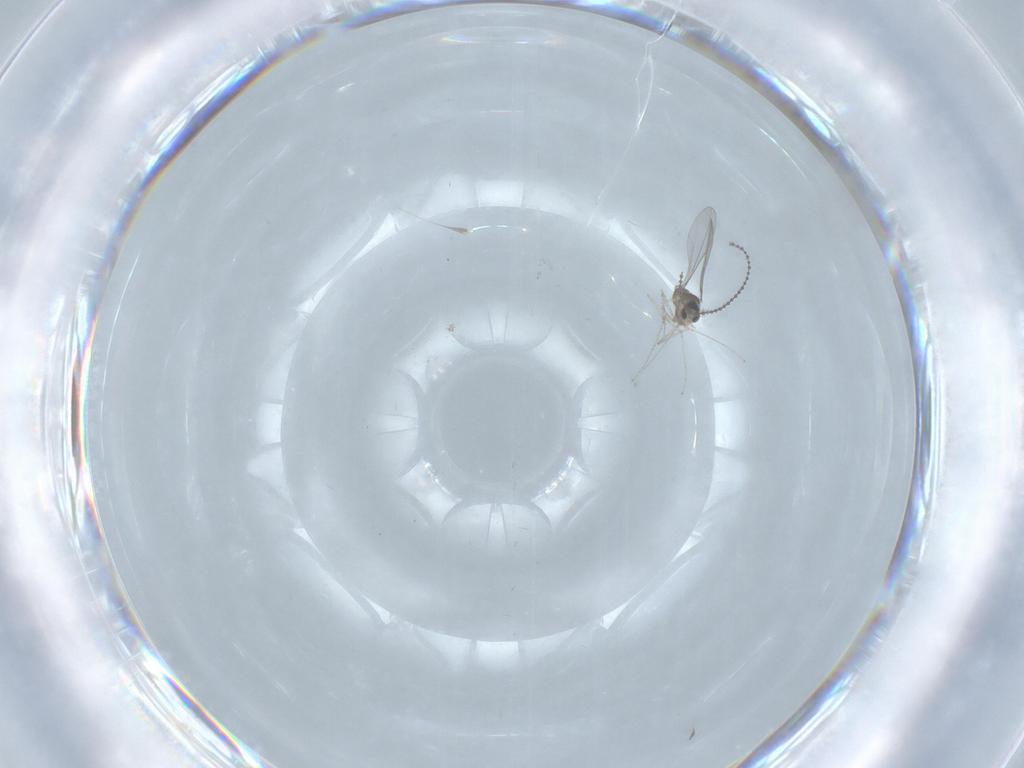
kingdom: Animalia
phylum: Arthropoda
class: Insecta
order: Diptera
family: Cecidomyiidae
